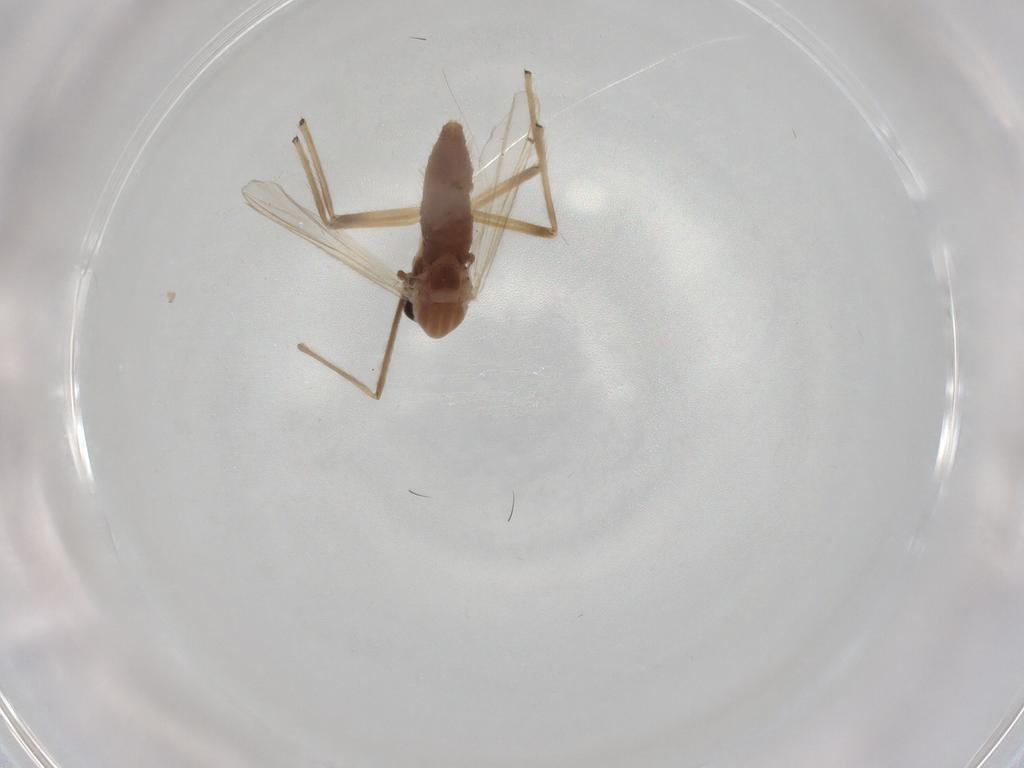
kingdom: Animalia
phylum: Arthropoda
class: Insecta
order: Diptera
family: Chironomidae
